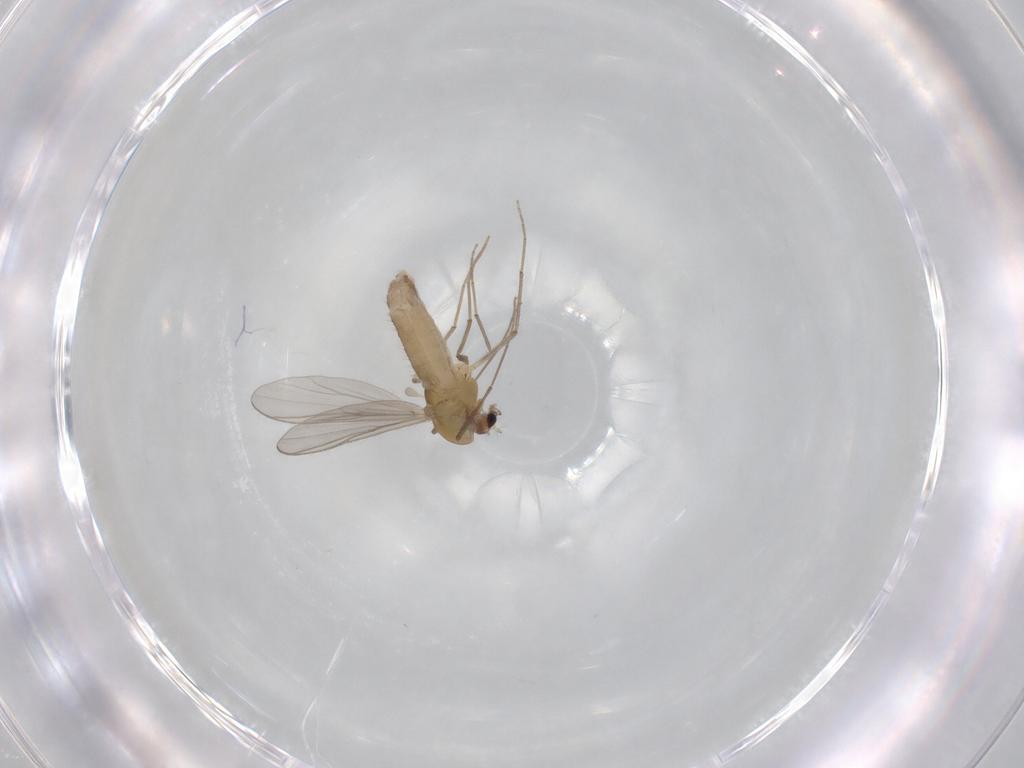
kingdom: Animalia
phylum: Arthropoda
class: Insecta
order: Diptera
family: Chironomidae
